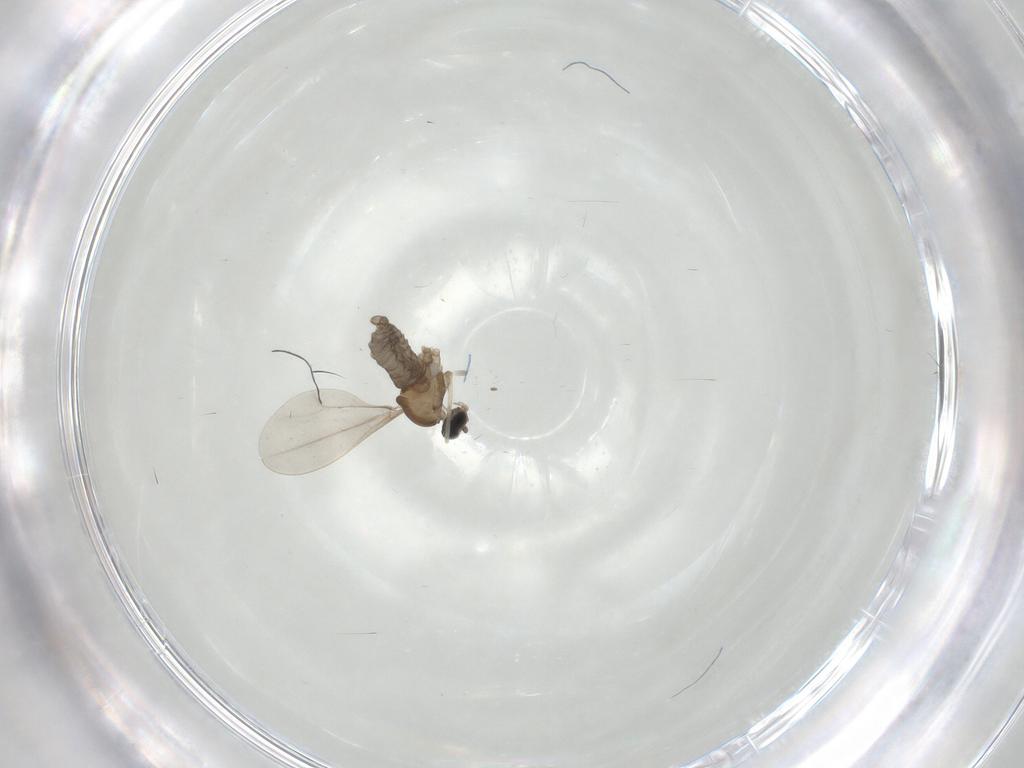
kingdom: Animalia
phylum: Arthropoda
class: Insecta
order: Diptera
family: Cecidomyiidae
